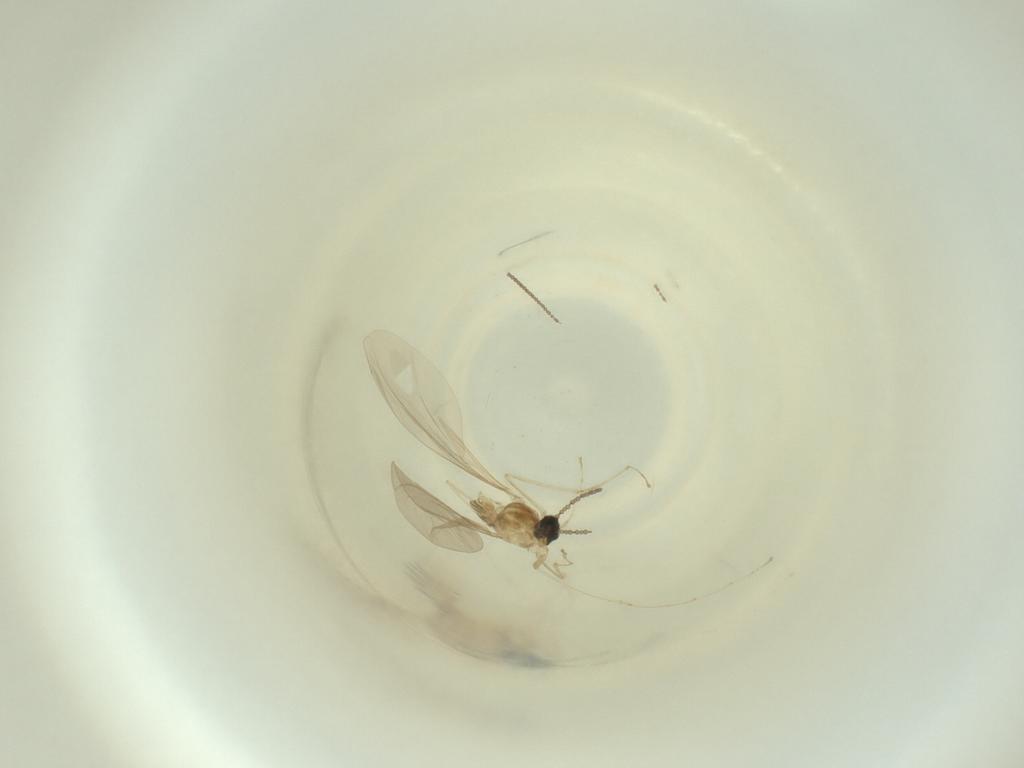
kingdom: Animalia
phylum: Arthropoda
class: Insecta
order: Diptera
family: Cecidomyiidae
